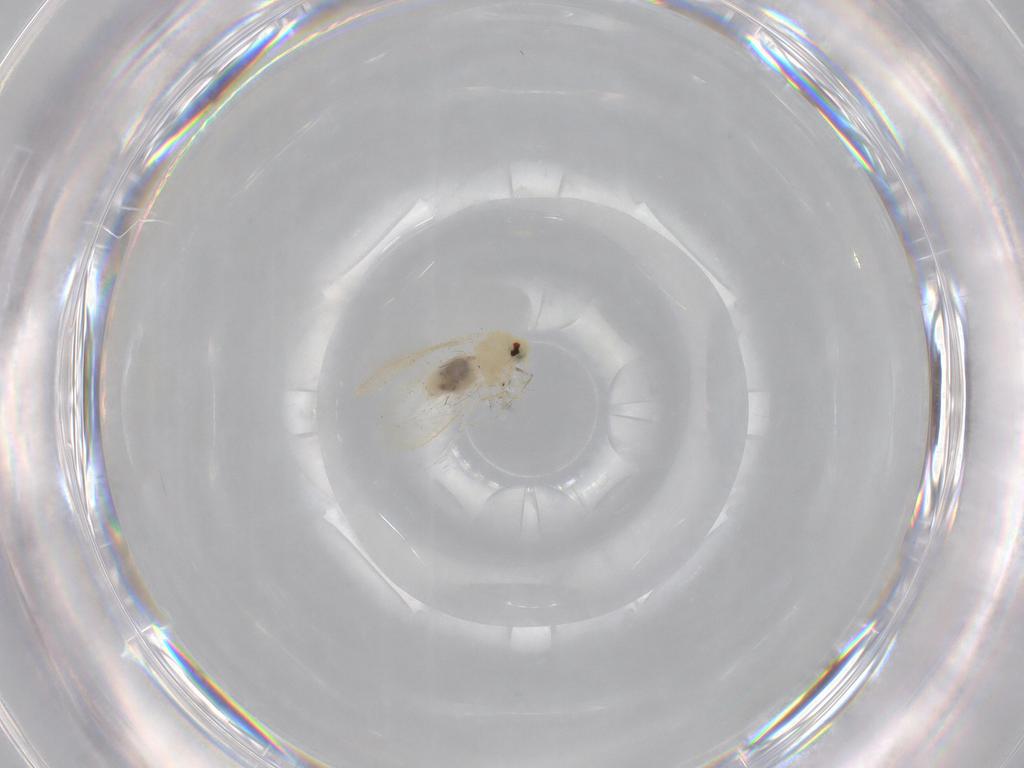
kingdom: Animalia
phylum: Arthropoda
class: Insecta
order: Hemiptera
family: Aleyrodidae
